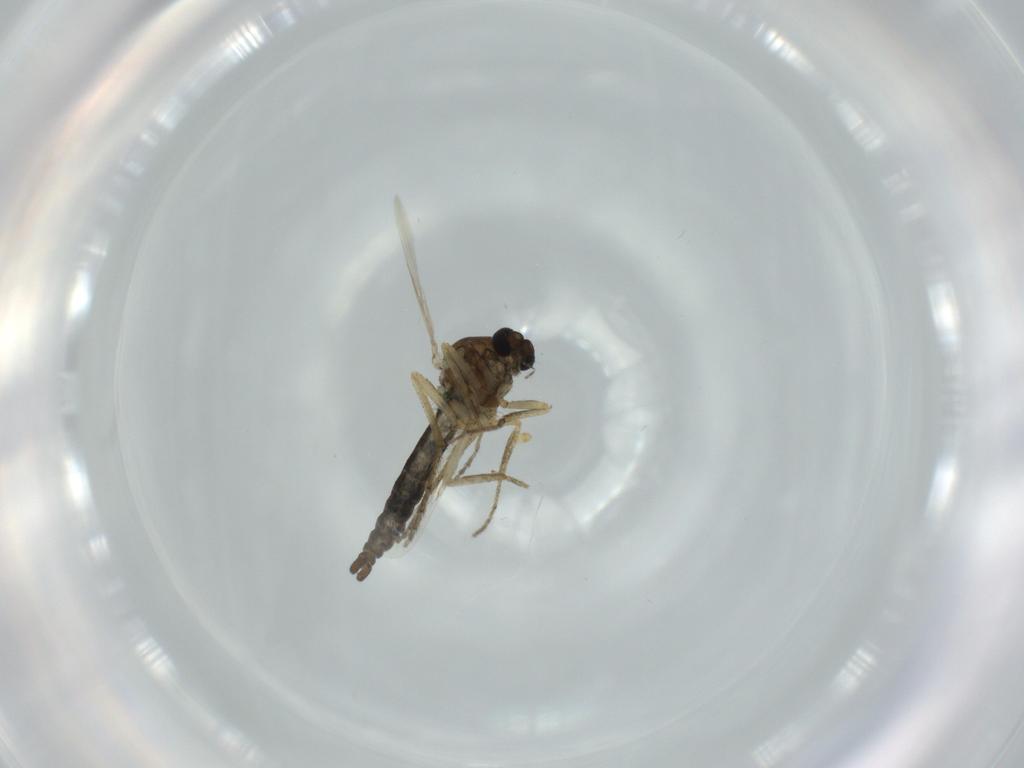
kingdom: Animalia
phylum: Arthropoda
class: Insecta
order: Diptera
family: Ceratopogonidae
